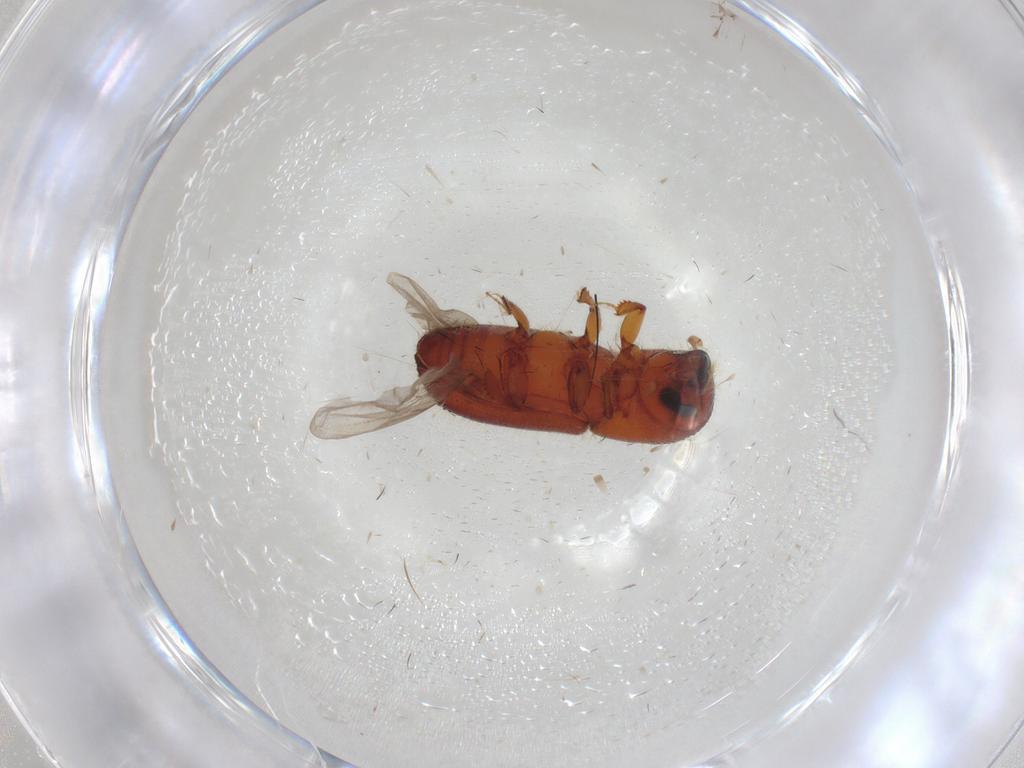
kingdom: Animalia
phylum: Arthropoda
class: Insecta
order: Coleoptera
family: Curculionidae
